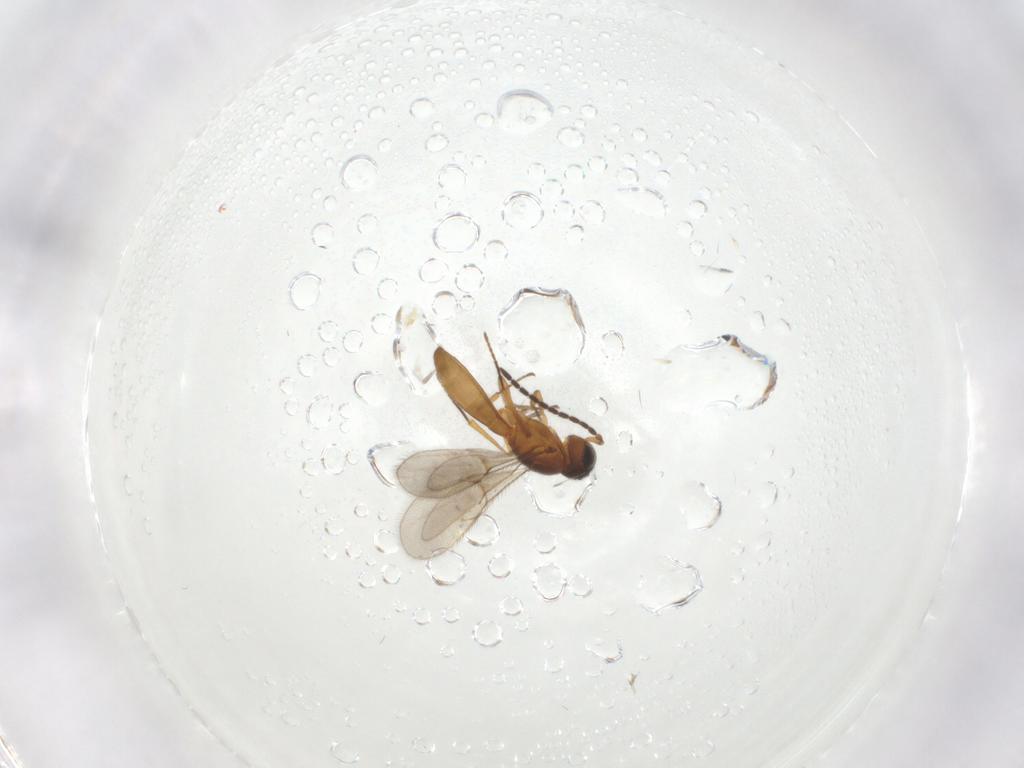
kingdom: Animalia
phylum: Arthropoda
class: Insecta
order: Hymenoptera
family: Scelionidae
